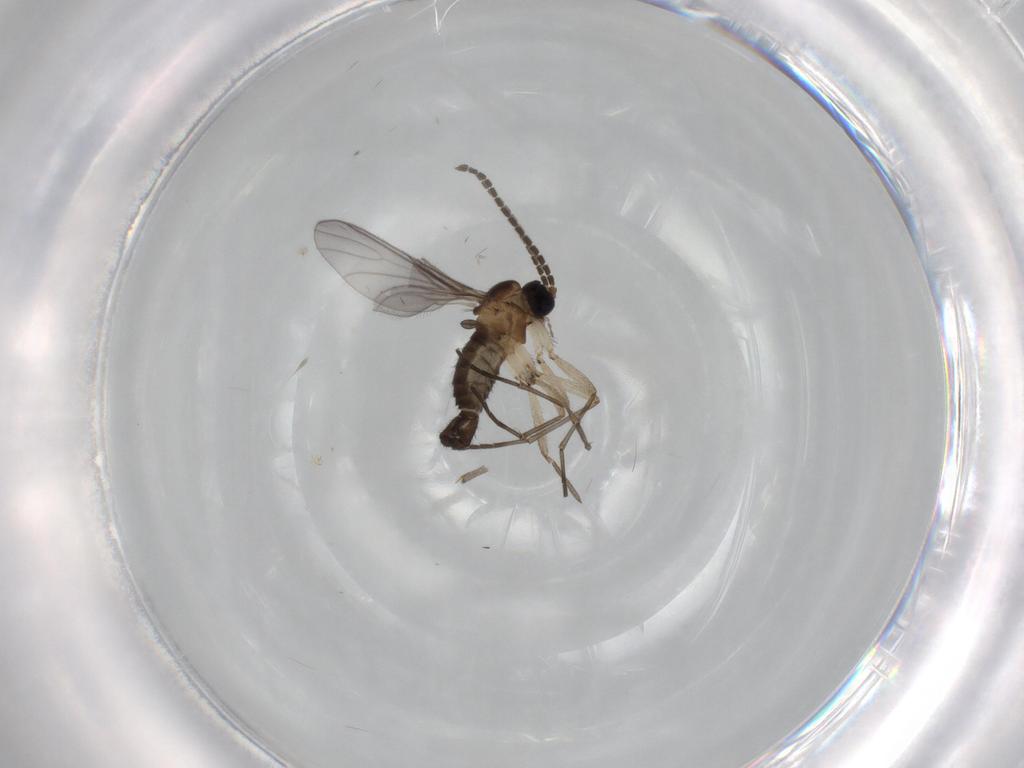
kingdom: Animalia
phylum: Arthropoda
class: Insecta
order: Diptera
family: Sciaridae
